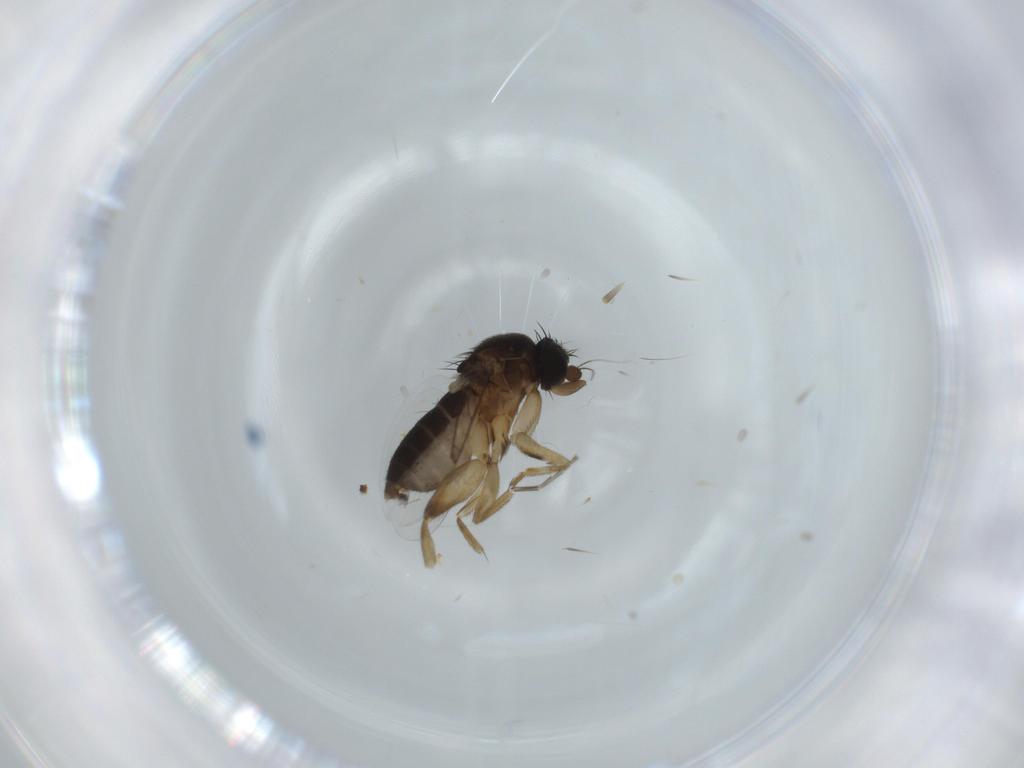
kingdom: Animalia
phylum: Arthropoda
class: Insecta
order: Diptera
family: Phoridae
